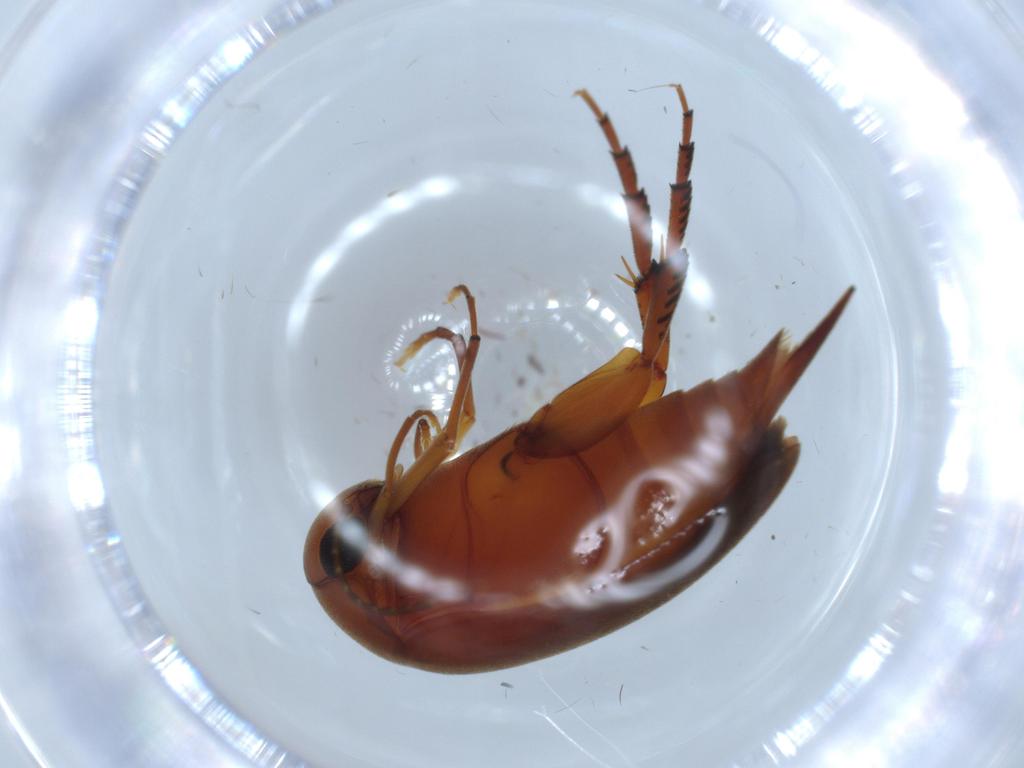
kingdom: Animalia
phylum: Arthropoda
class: Insecta
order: Coleoptera
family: Mordellidae
